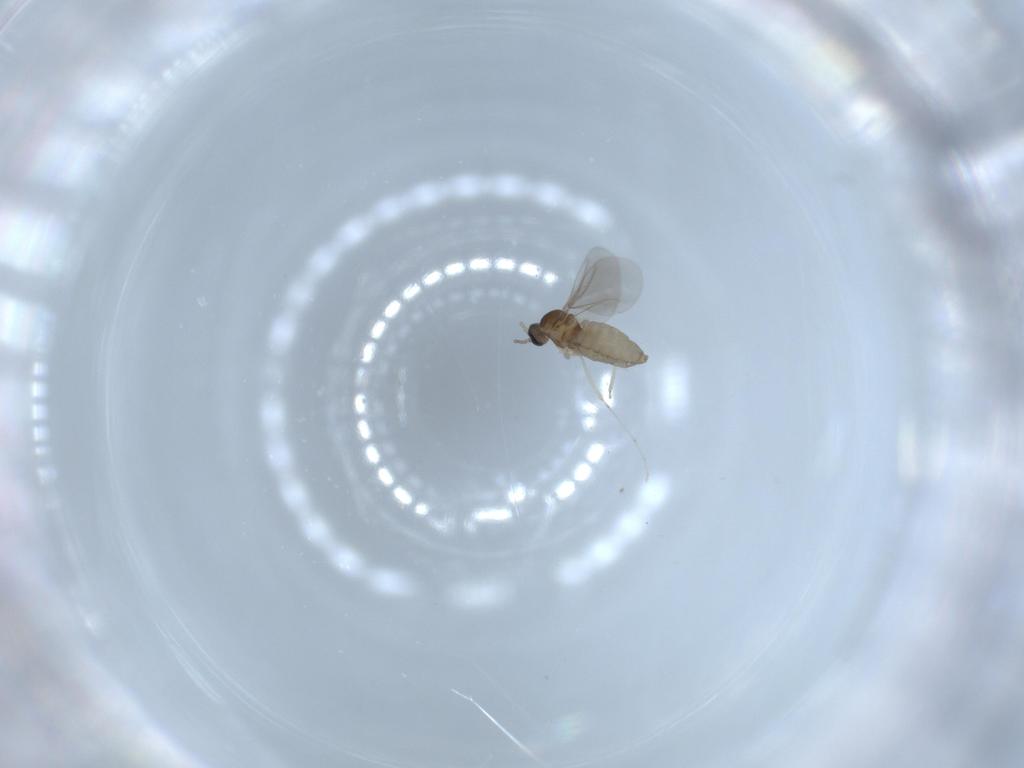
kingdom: Animalia
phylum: Arthropoda
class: Insecta
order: Diptera
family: Cecidomyiidae
